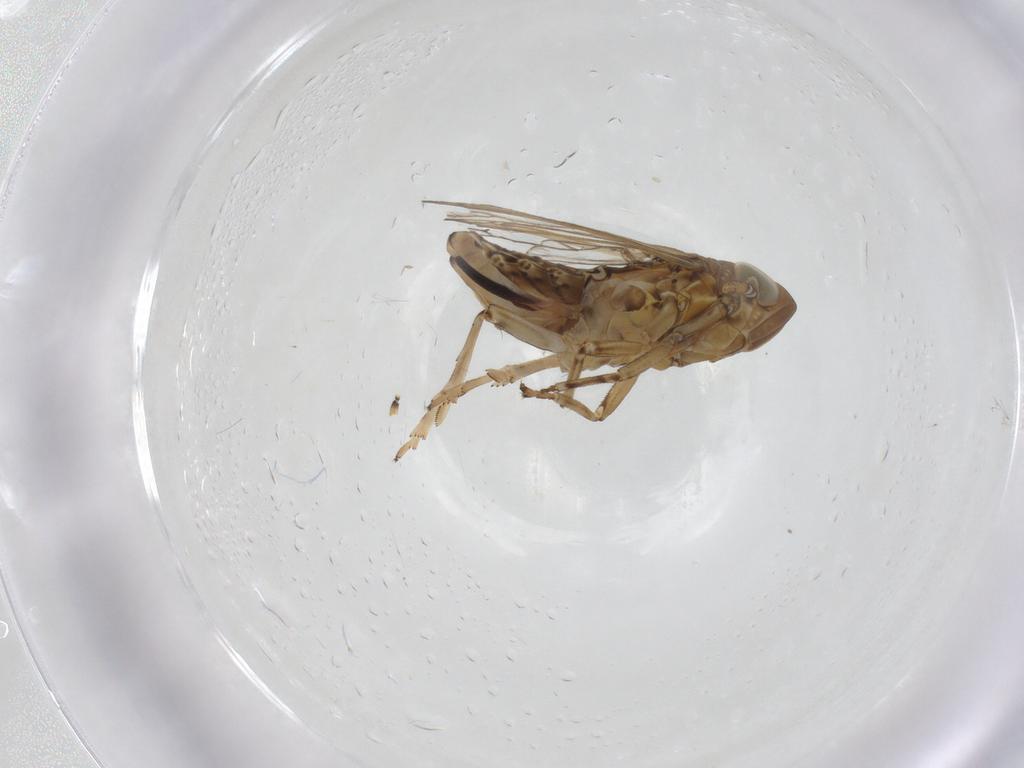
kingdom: Animalia
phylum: Arthropoda
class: Insecta
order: Hemiptera
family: Delphacidae
